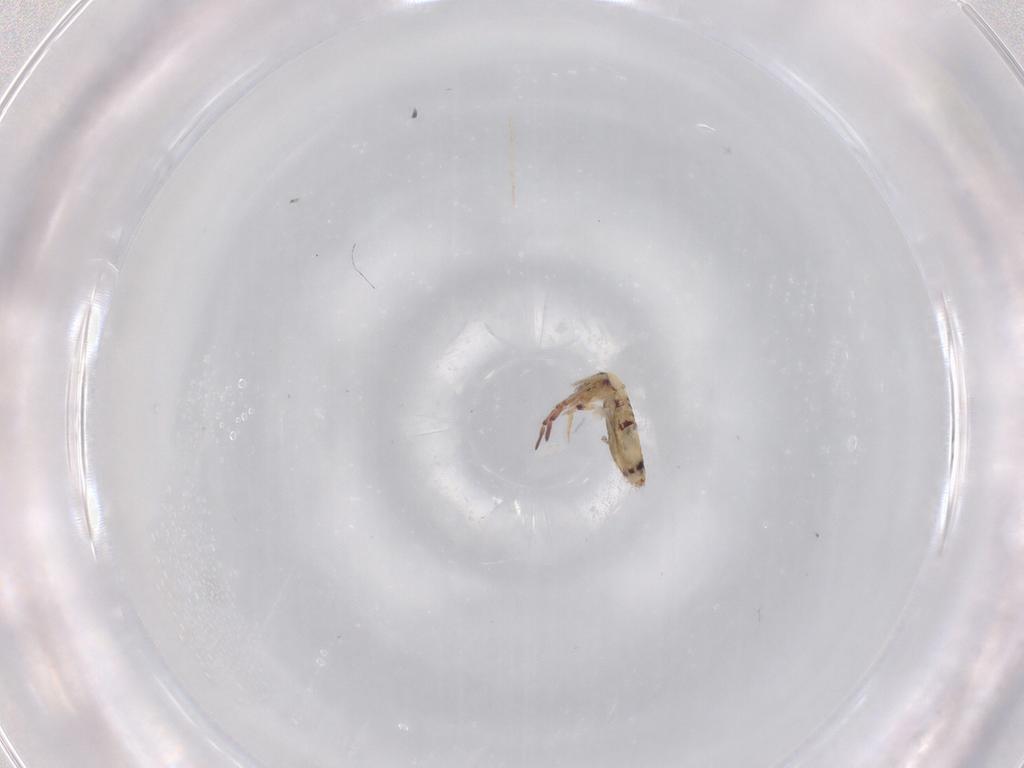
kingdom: Animalia
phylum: Arthropoda
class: Collembola
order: Entomobryomorpha
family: Entomobryidae
